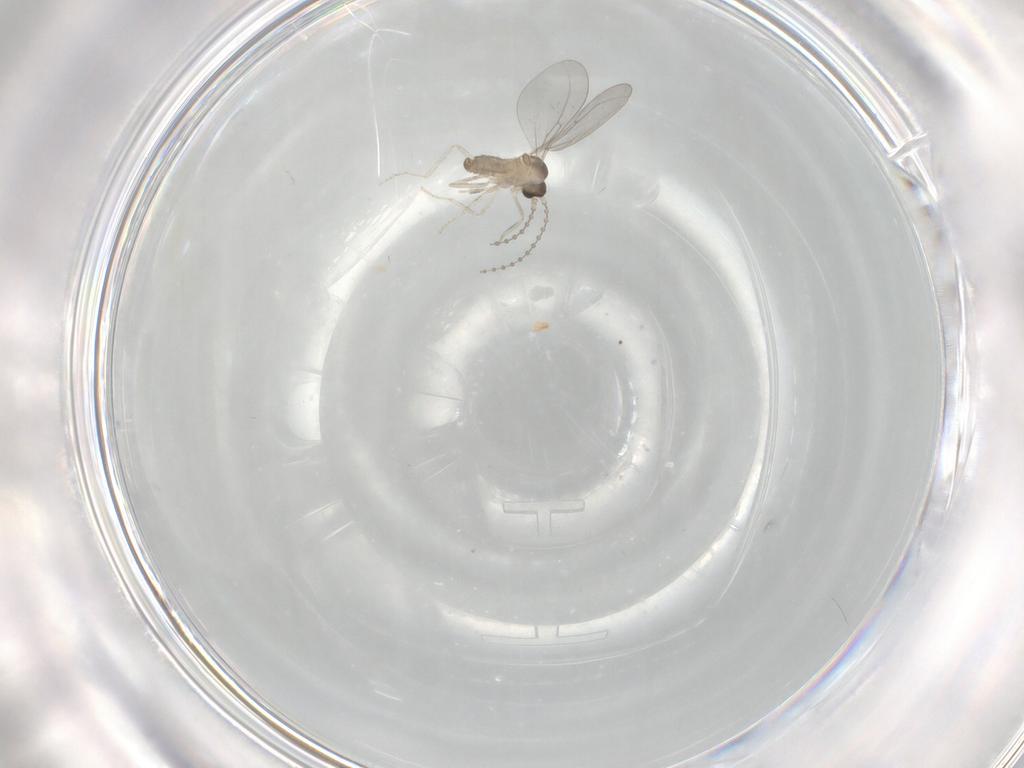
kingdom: Animalia
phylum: Arthropoda
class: Insecta
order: Diptera
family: Cecidomyiidae
